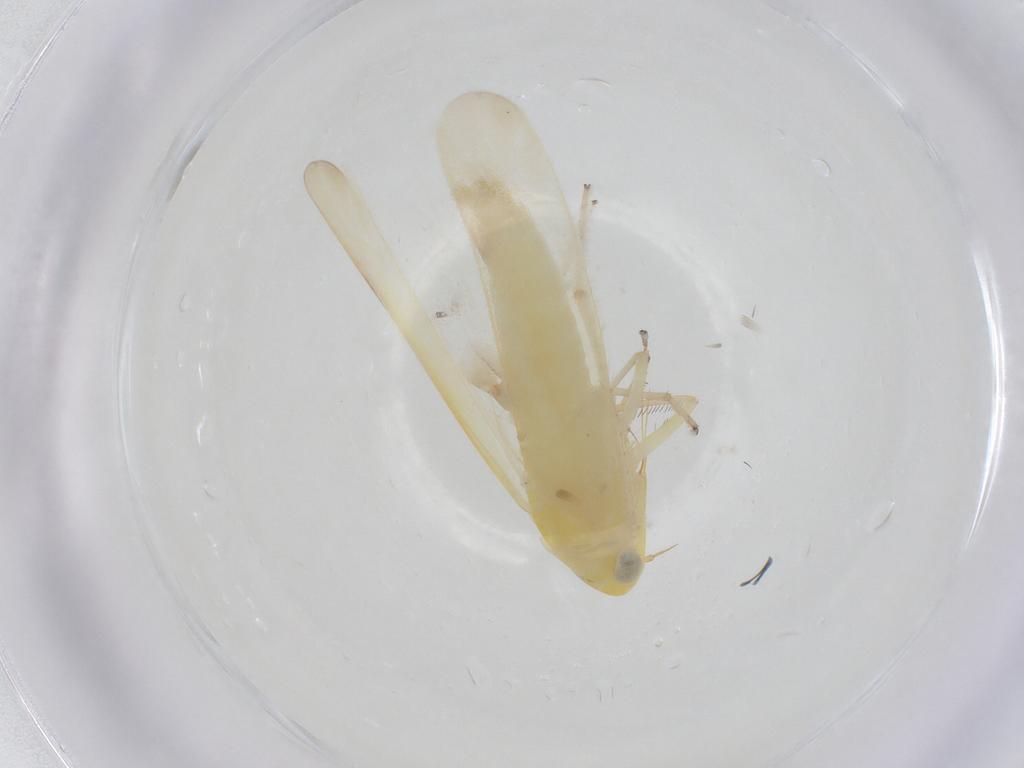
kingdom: Animalia
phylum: Arthropoda
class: Insecta
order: Hemiptera
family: Cicadellidae
